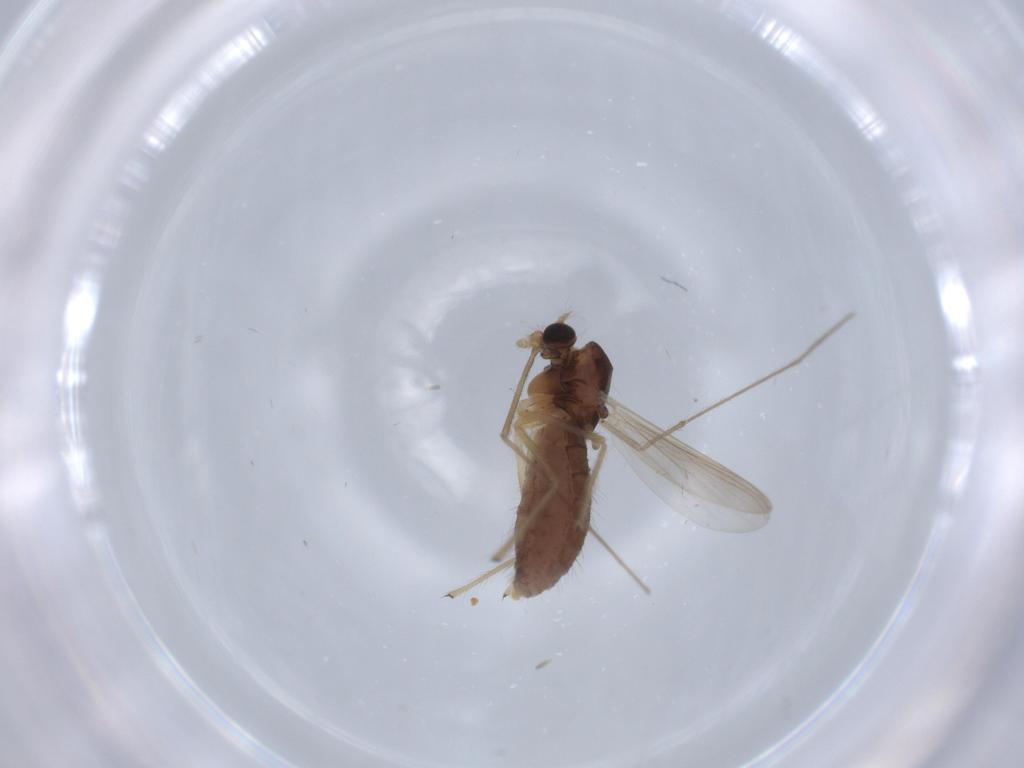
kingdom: Animalia
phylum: Arthropoda
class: Insecta
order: Diptera
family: Chironomidae
